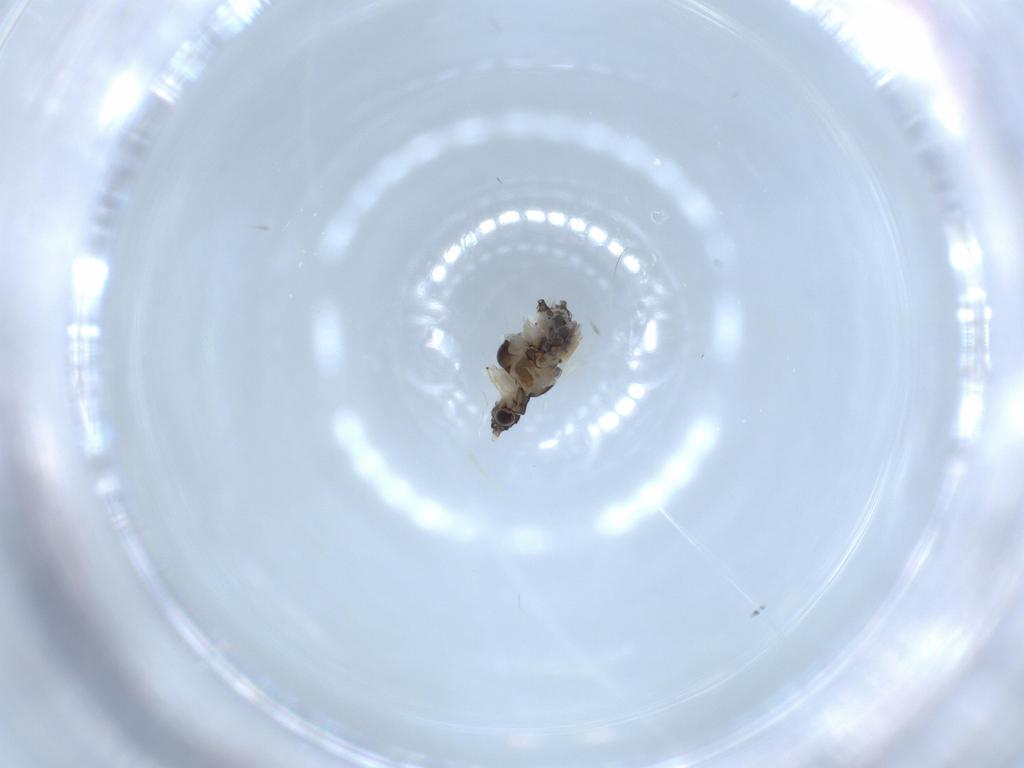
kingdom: Animalia
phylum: Arthropoda
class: Insecta
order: Hemiptera
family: Aphididae
